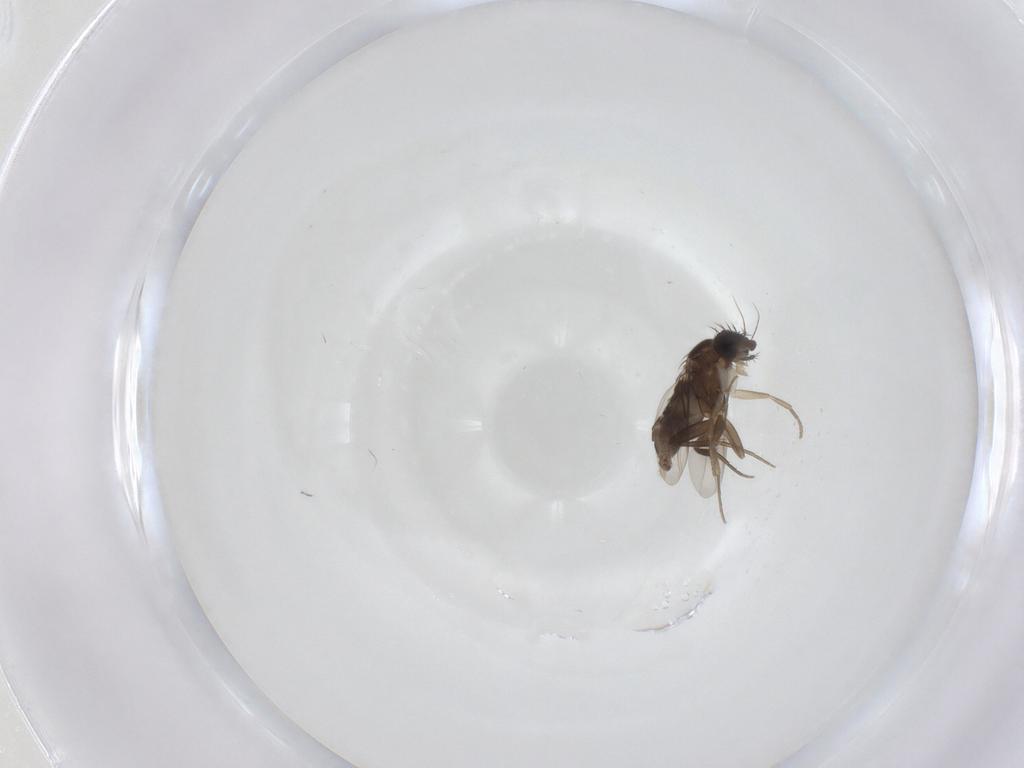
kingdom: Animalia
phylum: Arthropoda
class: Insecta
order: Diptera
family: Phoridae
